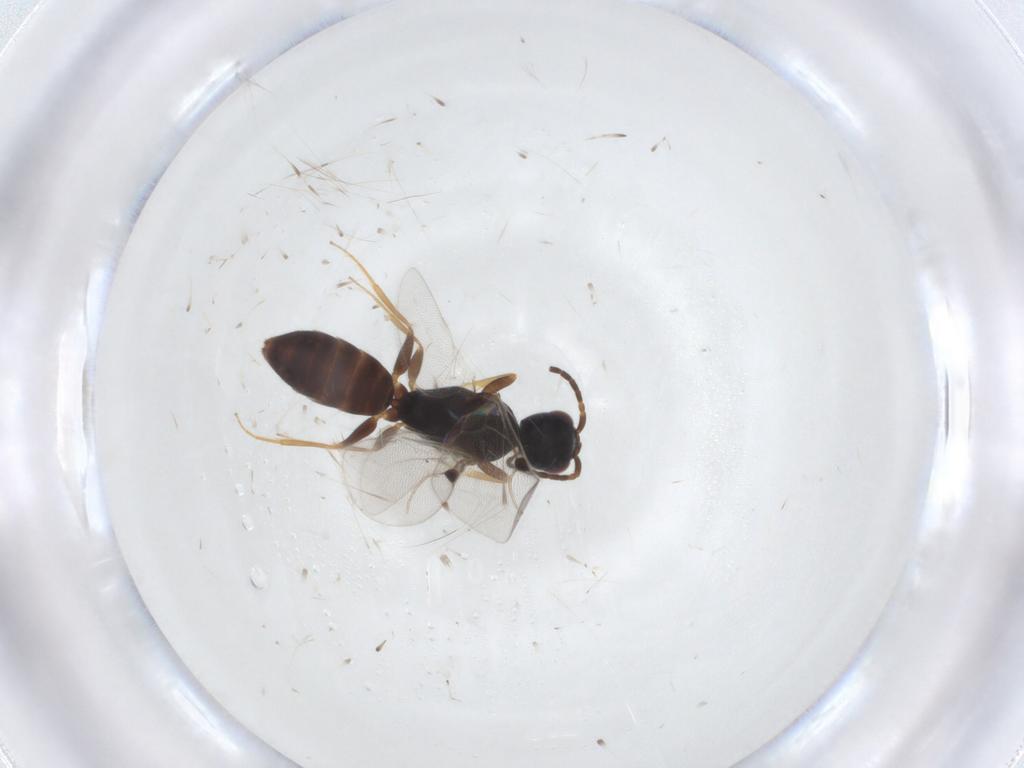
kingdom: Animalia
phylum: Arthropoda
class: Insecta
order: Hymenoptera
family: Bethylidae
